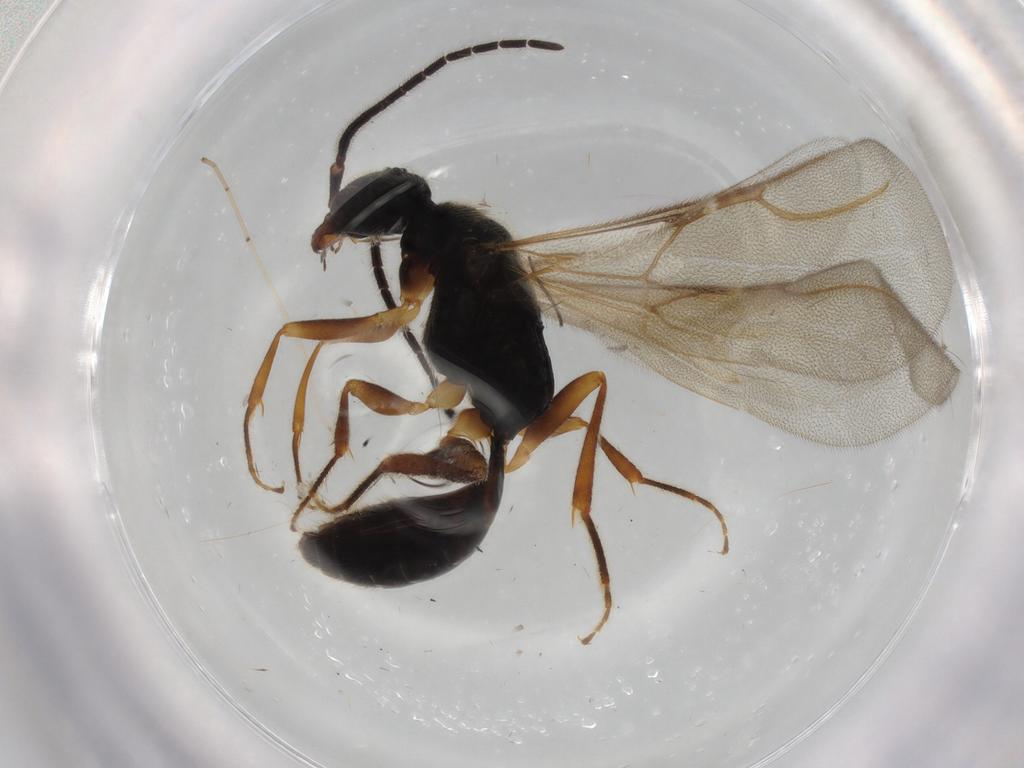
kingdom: Animalia
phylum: Arthropoda
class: Insecta
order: Hymenoptera
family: Bethylidae
